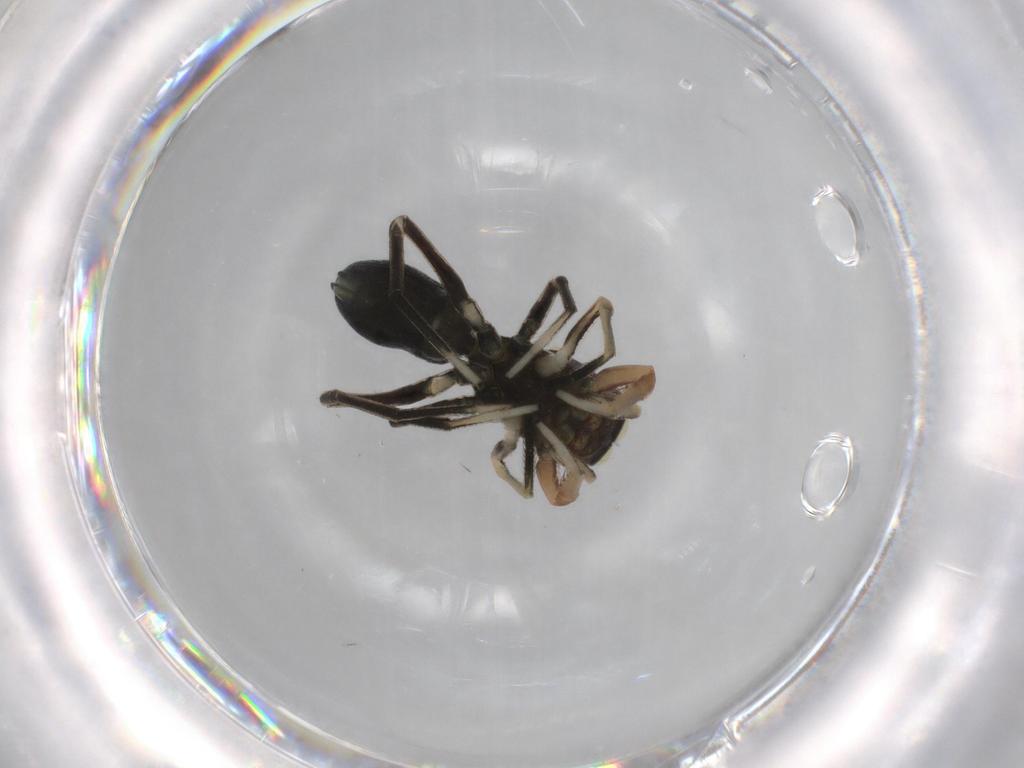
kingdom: Animalia
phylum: Arthropoda
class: Arachnida
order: Araneae
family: Salticidae
